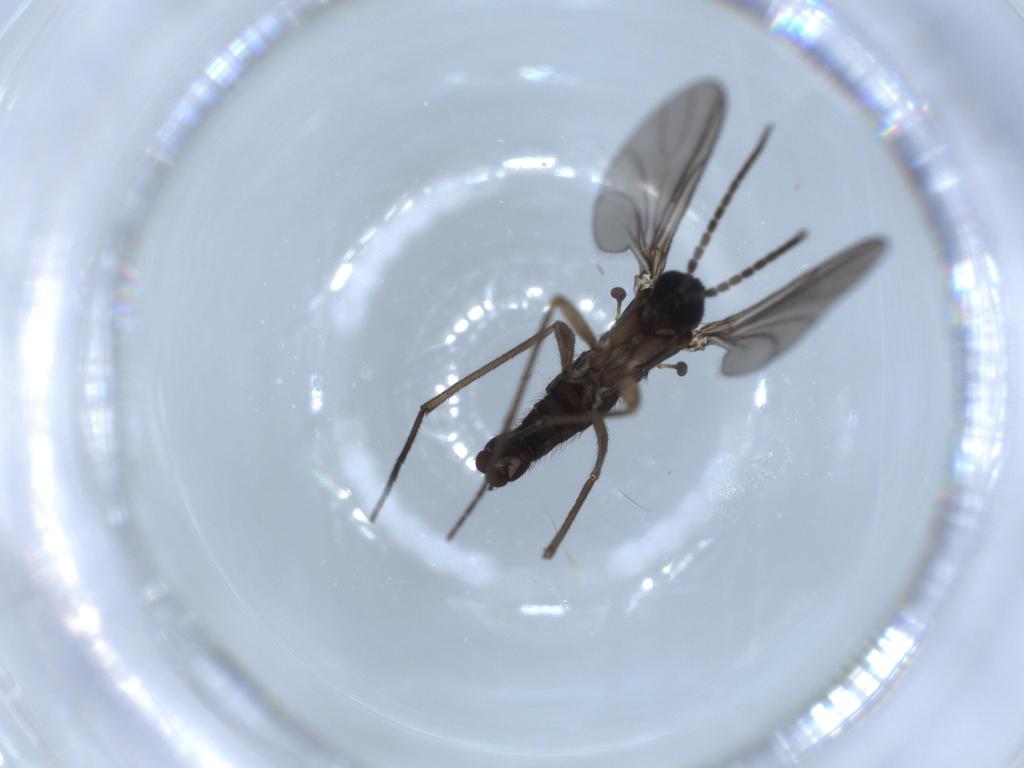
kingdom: Animalia
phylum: Arthropoda
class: Insecta
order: Diptera
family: Sciaridae
